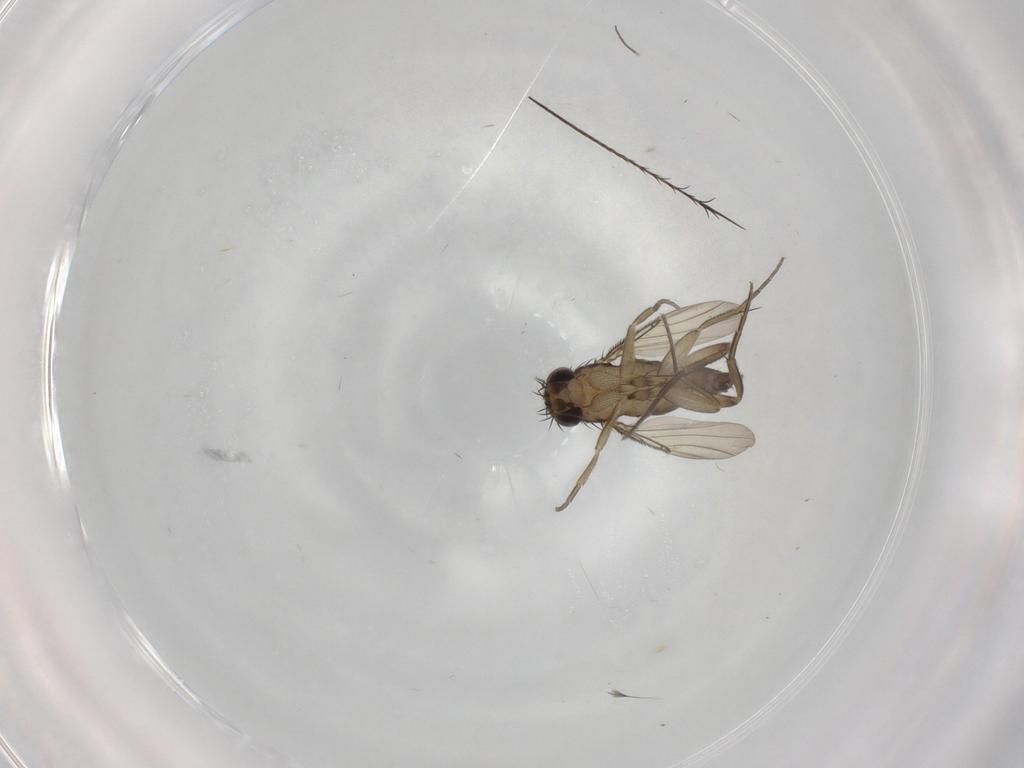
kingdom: Animalia
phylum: Arthropoda
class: Insecta
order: Diptera
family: Phoridae
